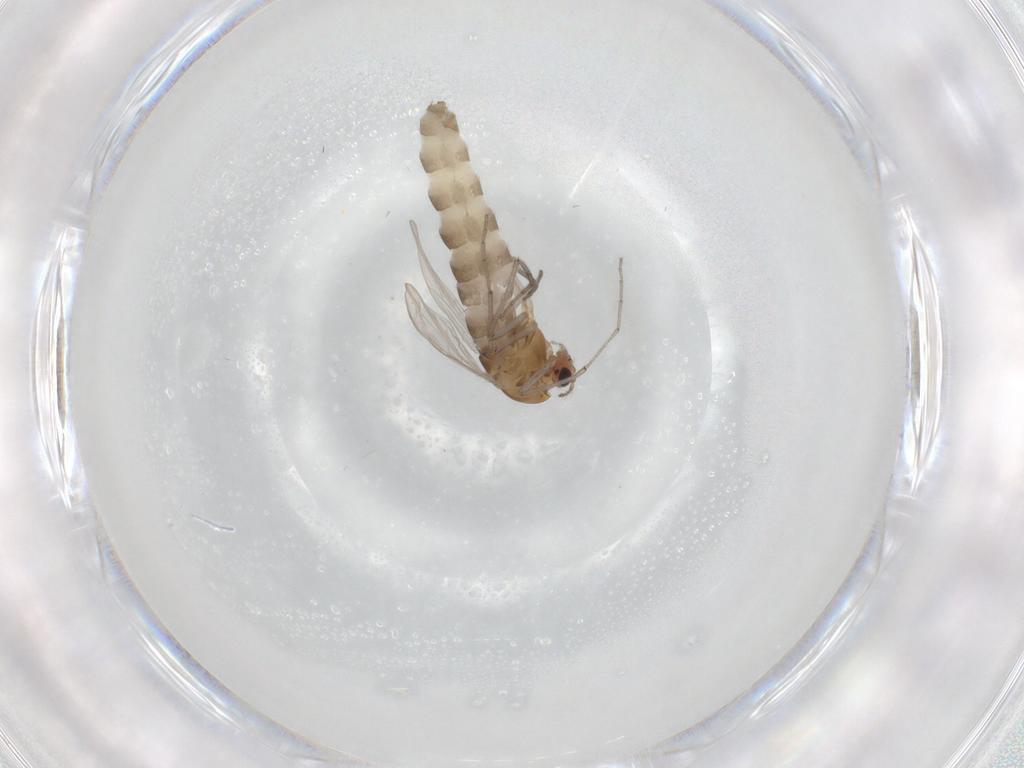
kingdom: Animalia
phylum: Arthropoda
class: Insecta
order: Diptera
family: Chironomidae
